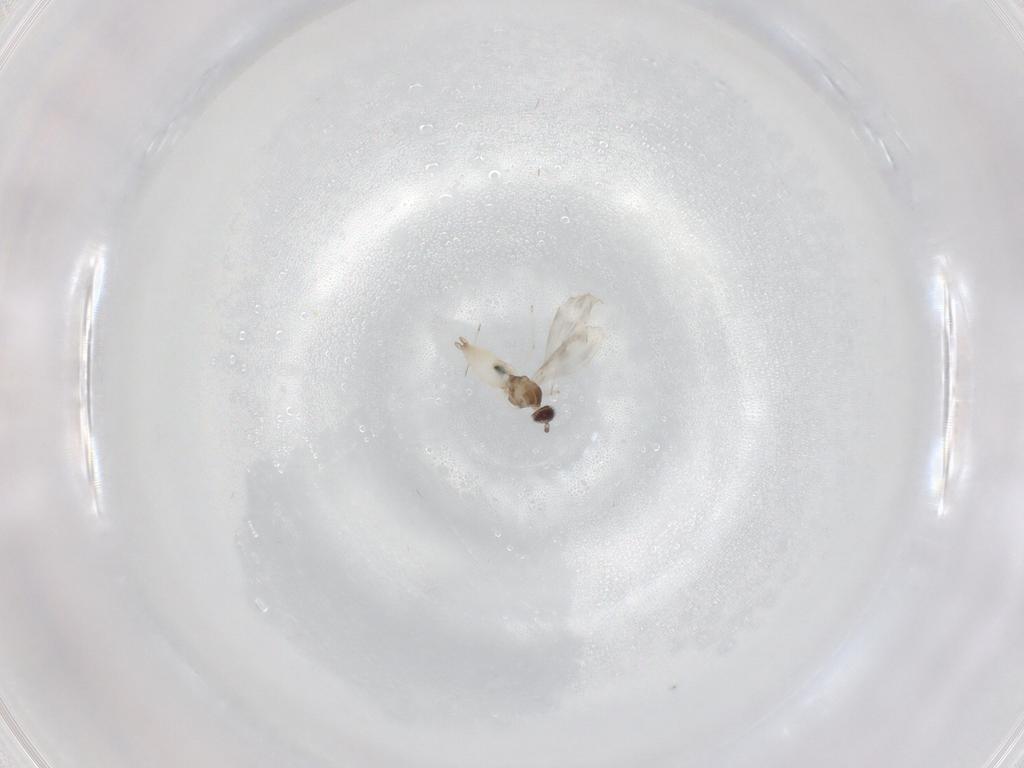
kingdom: Animalia
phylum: Arthropoda
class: Insecta
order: Diptera
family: Cecidomyiidae
